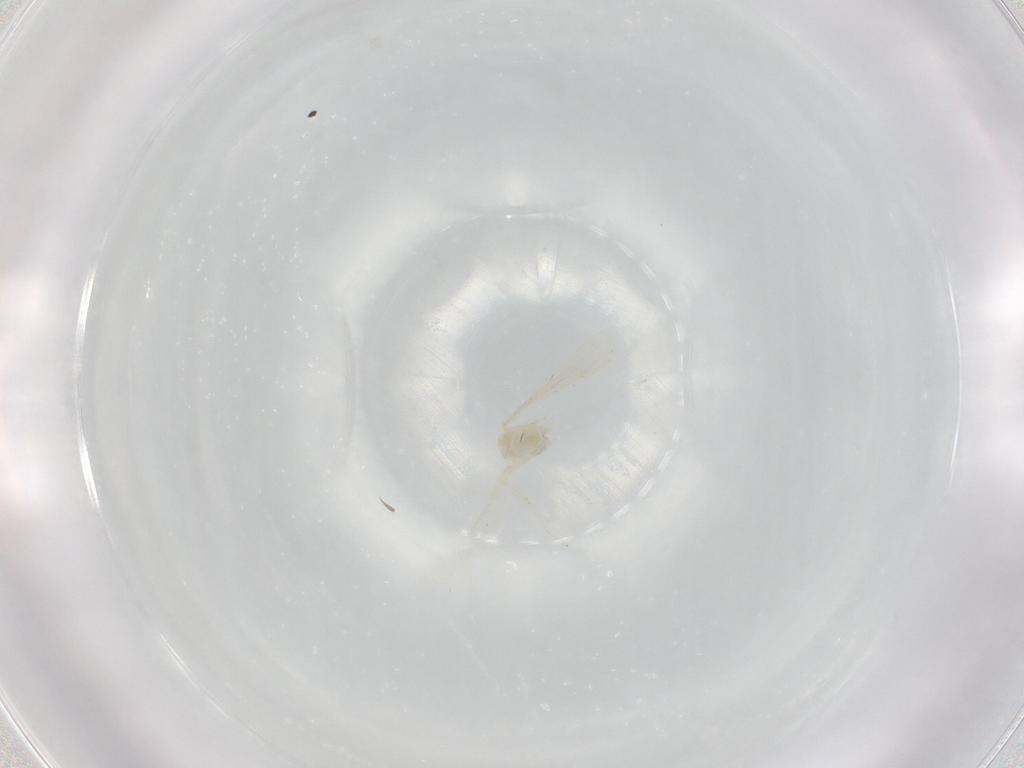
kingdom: Animalia
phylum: Arthropoda
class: Insecta
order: Diptera
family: Cecidomyiidae
